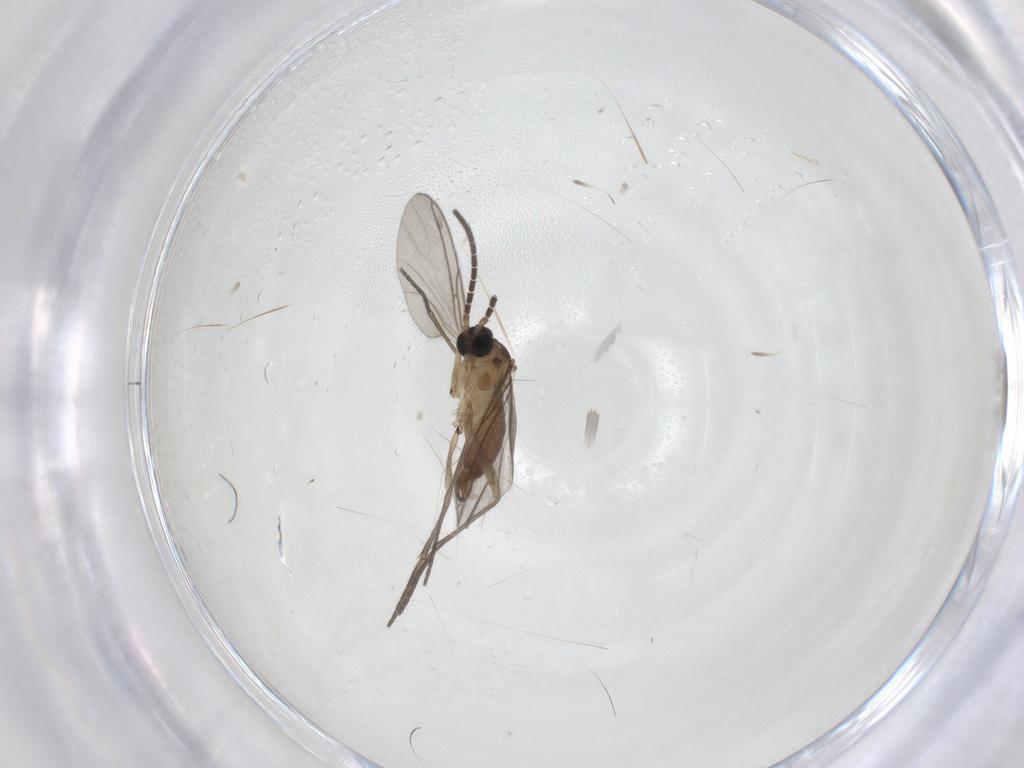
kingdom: Animalia
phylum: Arthropoda
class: Insecta
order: Diptera
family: Sciaridae
